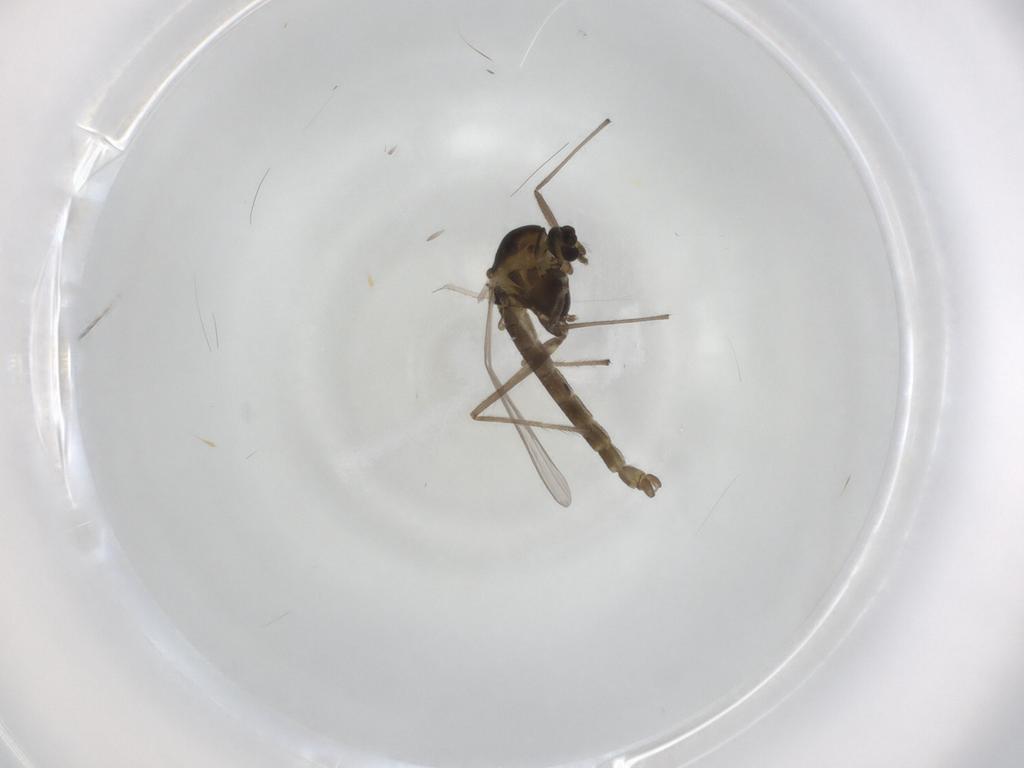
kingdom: Animalia
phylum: Arthropoda
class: Insecta
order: Diptera
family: Chironomidae
